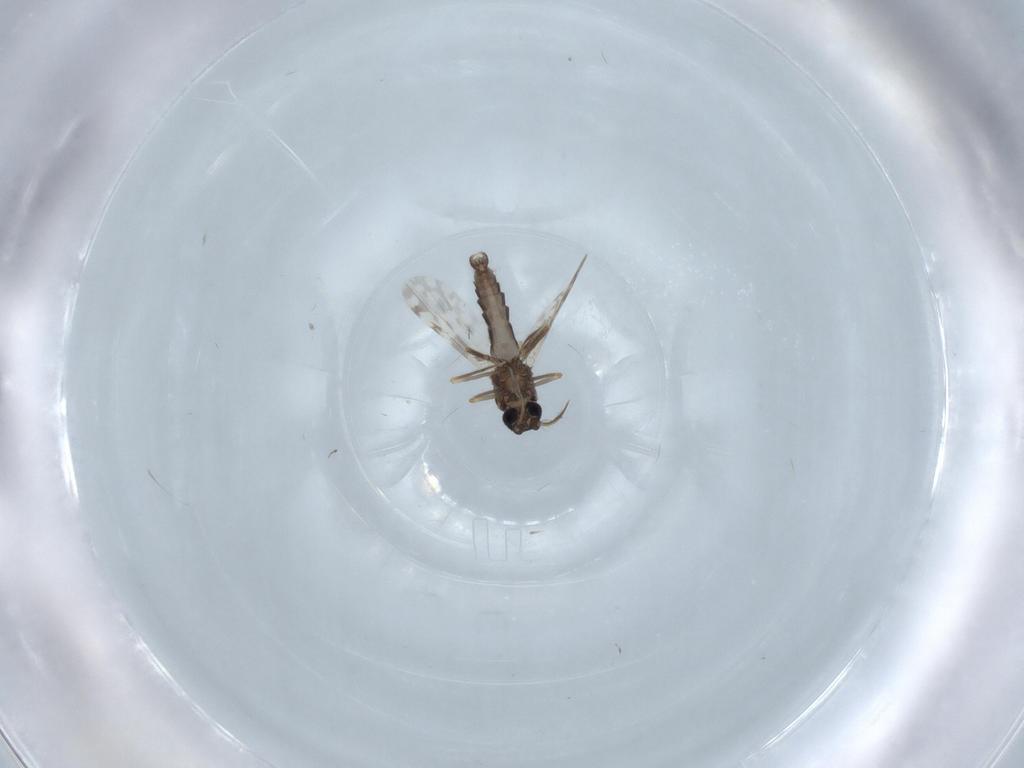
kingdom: Animalia
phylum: Arthropoda
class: Insecta
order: Diptera
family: Ceratopogonidae
